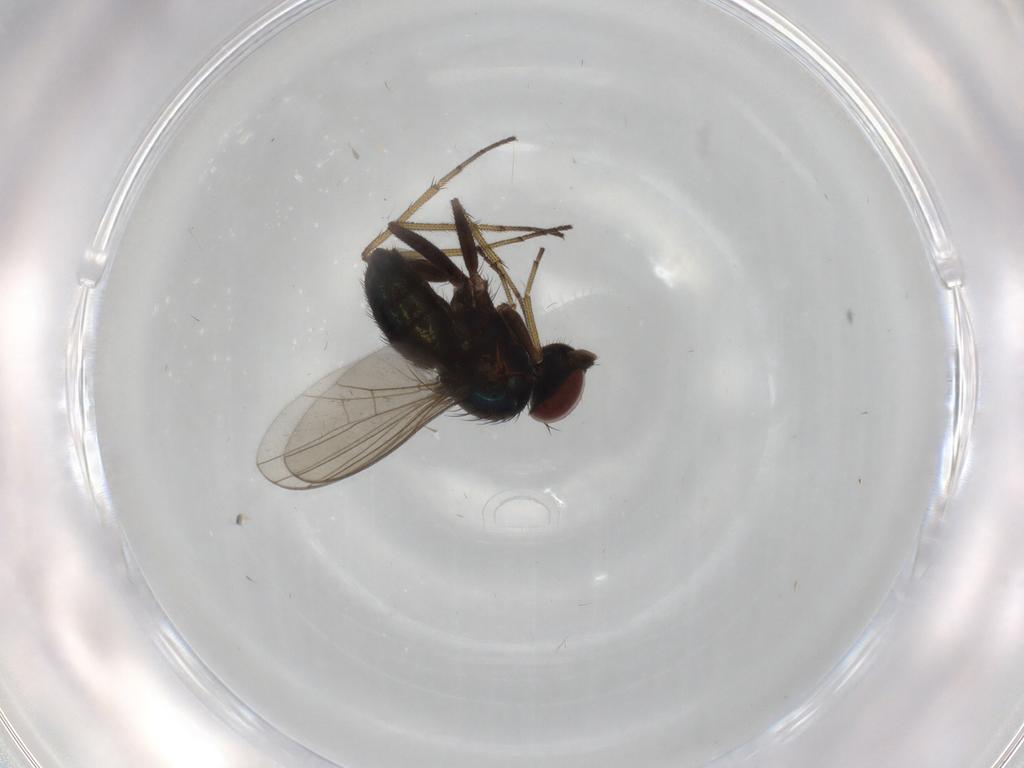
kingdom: Animalia
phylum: Arthropoda
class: Insecta
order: Diptera
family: Dolichopodidae
